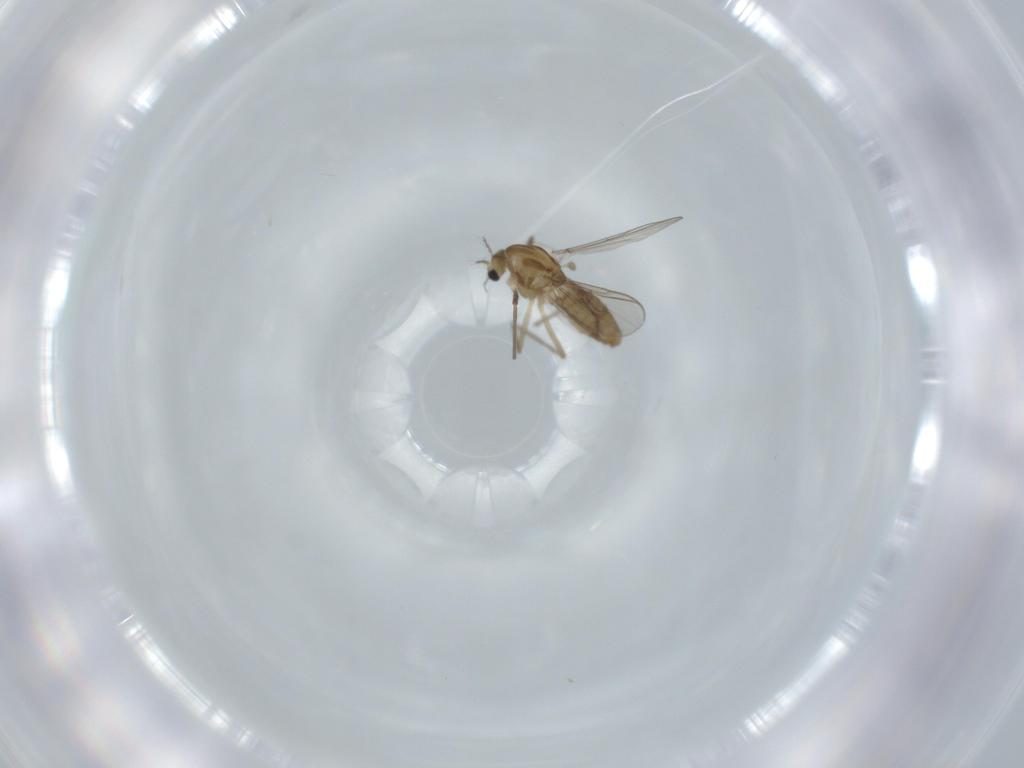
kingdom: Animalia
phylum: Arthropoda
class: Insecta
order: Diptera
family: Chironomidae
